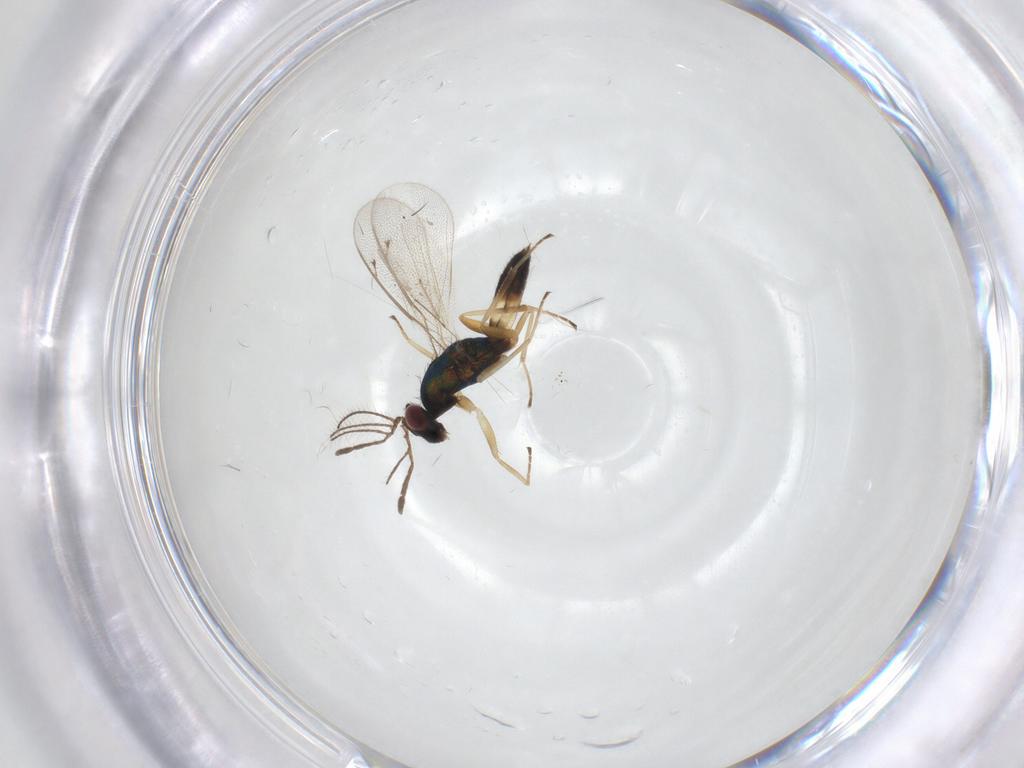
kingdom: Animalia
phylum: Arthropoda
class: Insecta
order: Hymenoptera
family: Eulophidae
